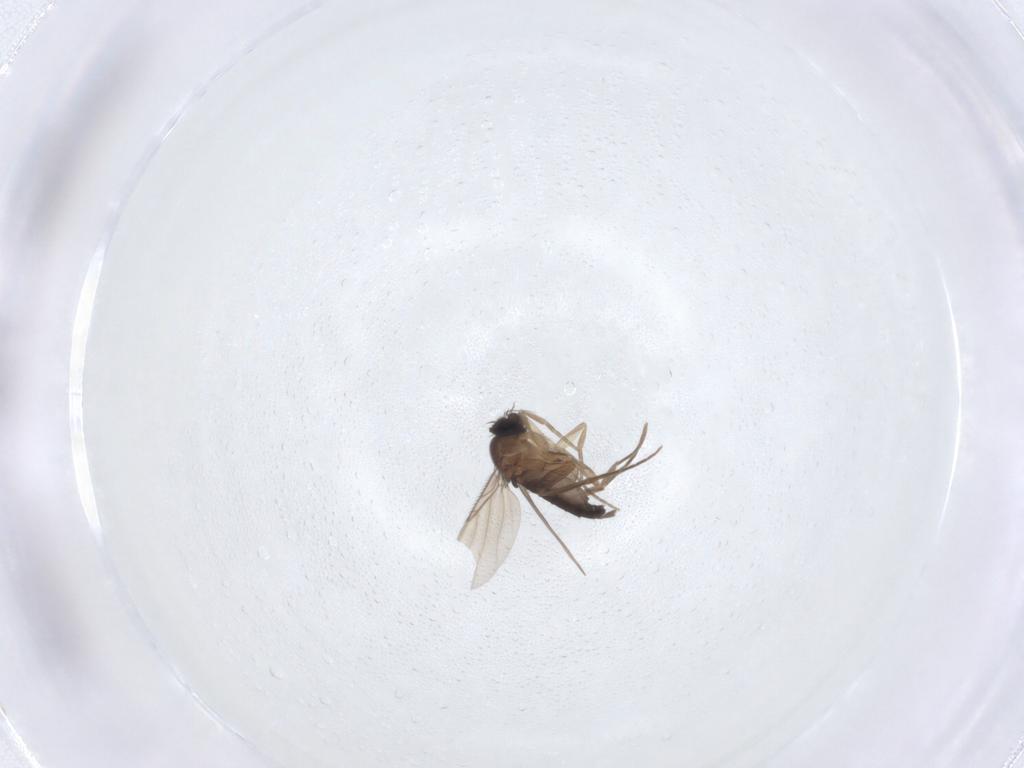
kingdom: Animalia
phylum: Arthropoda
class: Insecta
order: Diptera
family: Phoridae
